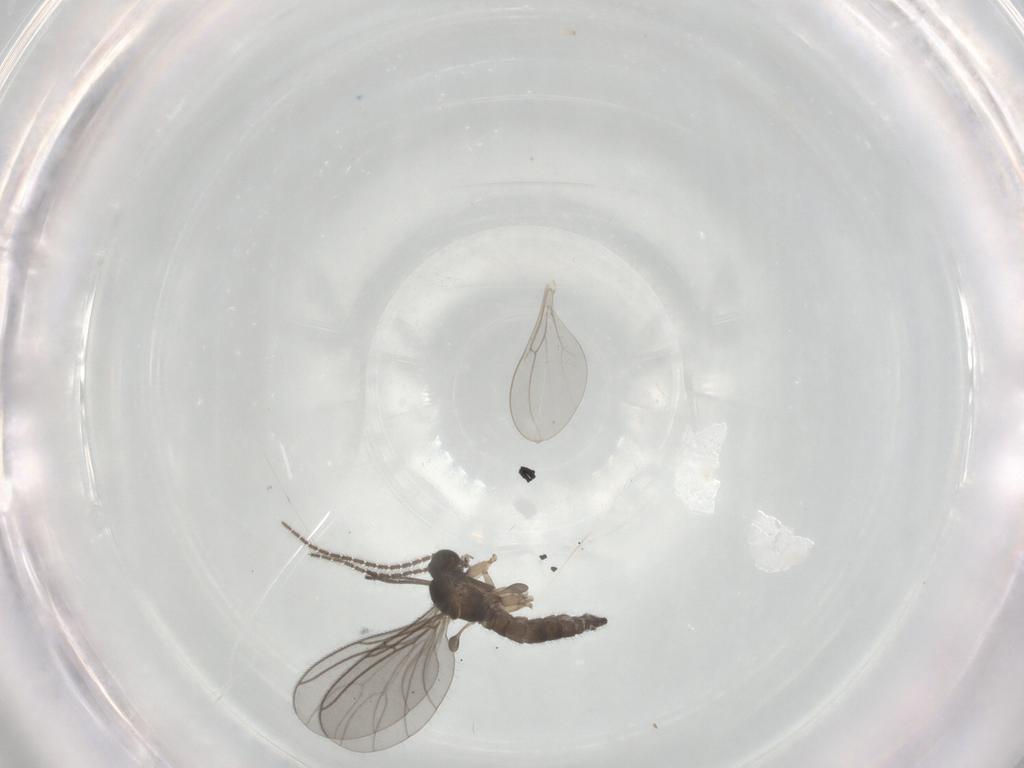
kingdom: Animalia
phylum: Arthropoda
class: Insecta
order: Diptera
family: Sciaridae
